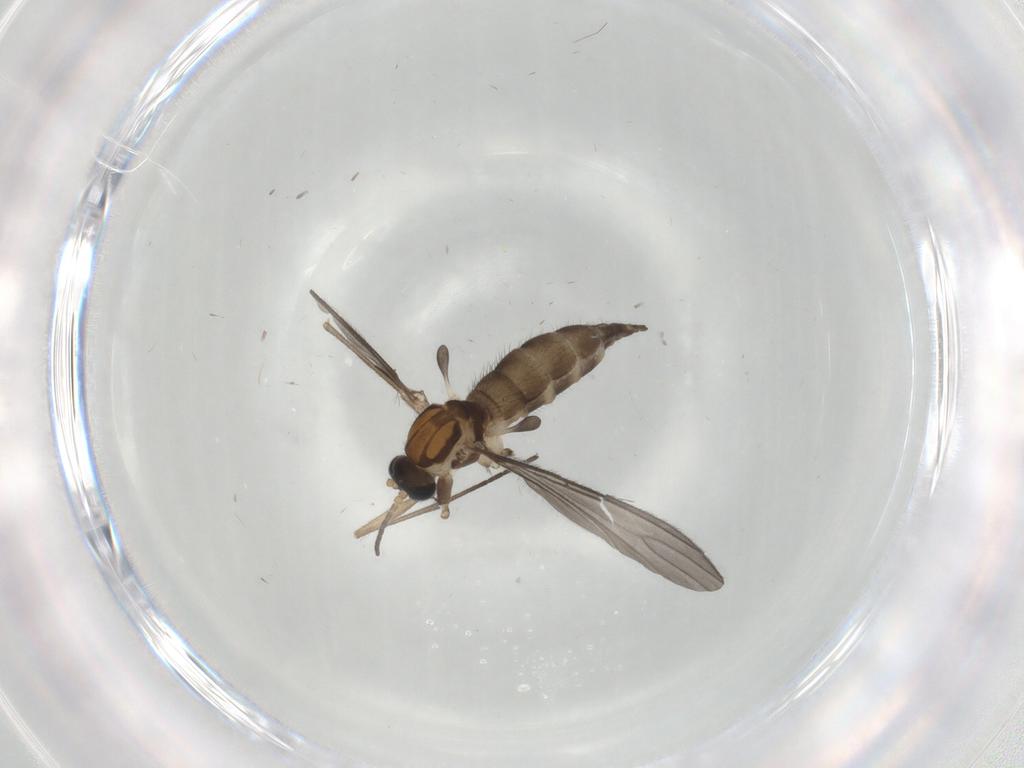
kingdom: Animalia
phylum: Arthropoda
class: Insecta
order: Diptera
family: Sciaridae
